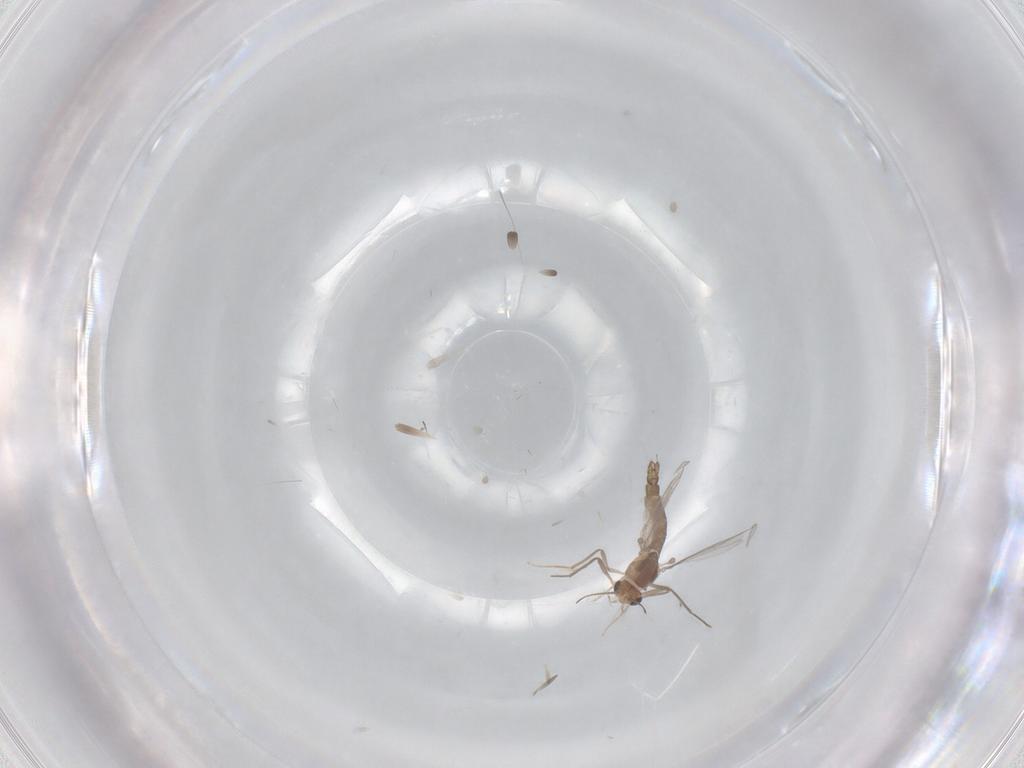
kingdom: Animalia
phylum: Arthropoda
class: Insecta
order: Diptera
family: Chironomidae
